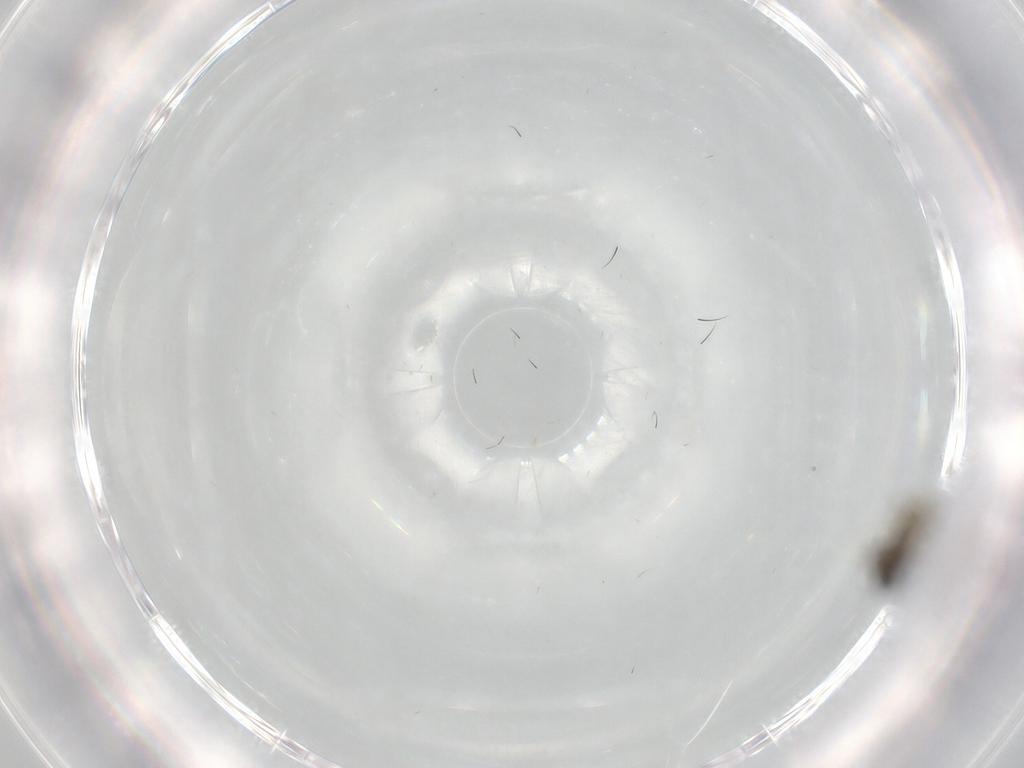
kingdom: Animalia
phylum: Arthropoda
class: Insecta
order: Diptera
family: Ceratopogonidae
